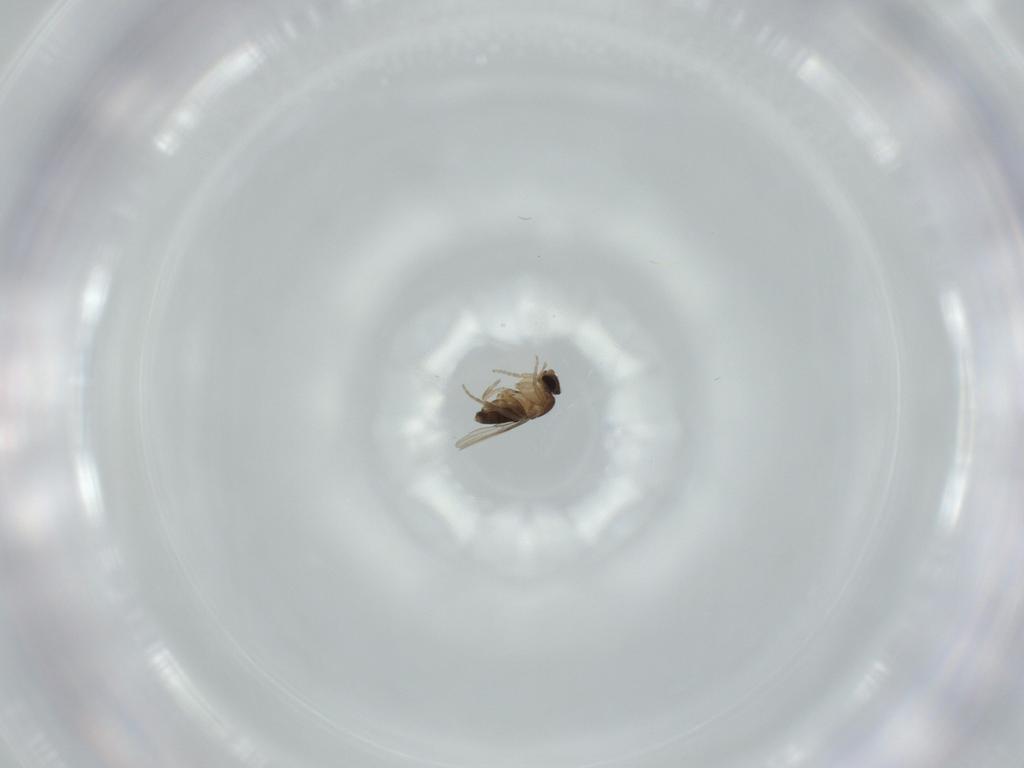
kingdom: Animalia
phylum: Arthropoda
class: Insecta
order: Diptera
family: Phoridae
